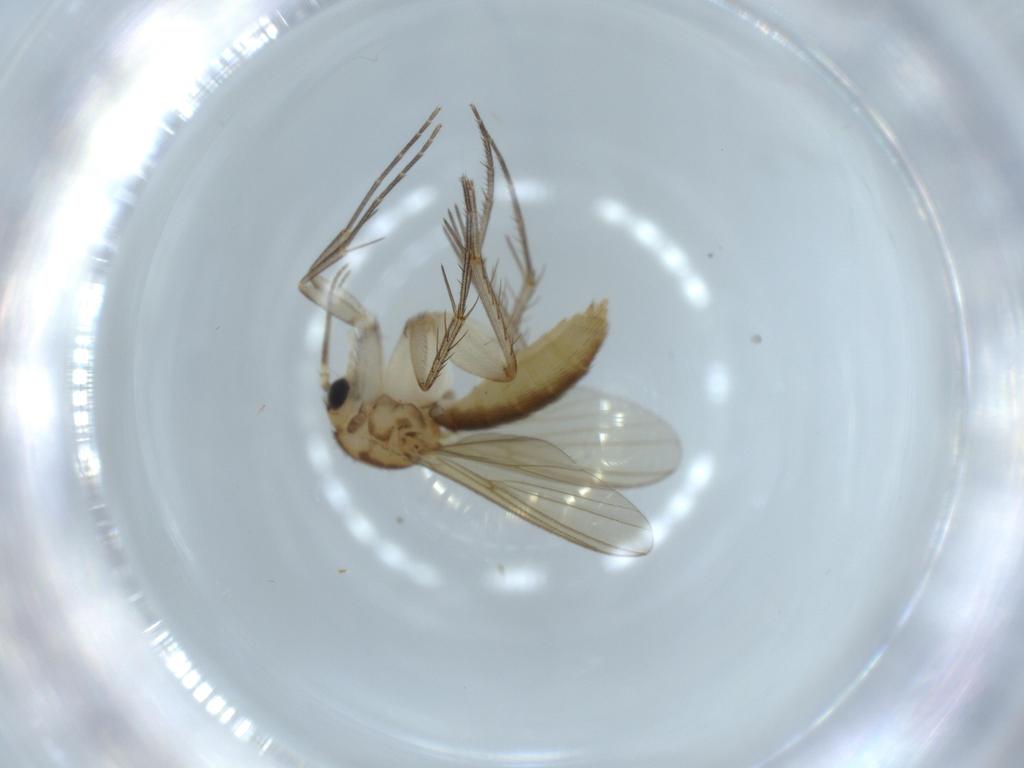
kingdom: Animalia
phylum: Arthropoda
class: Insecta
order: Diptera
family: Mycetophilidae
